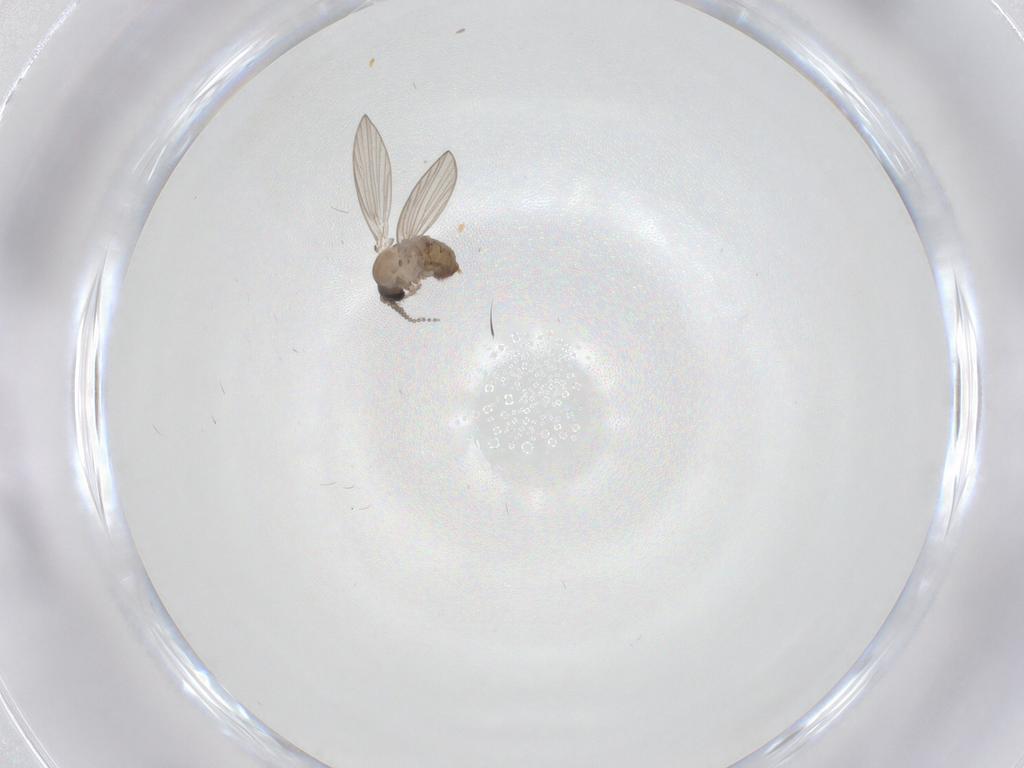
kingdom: Animalia
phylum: Arthropoda
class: Insecta
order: Diptera
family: Psychodidae
